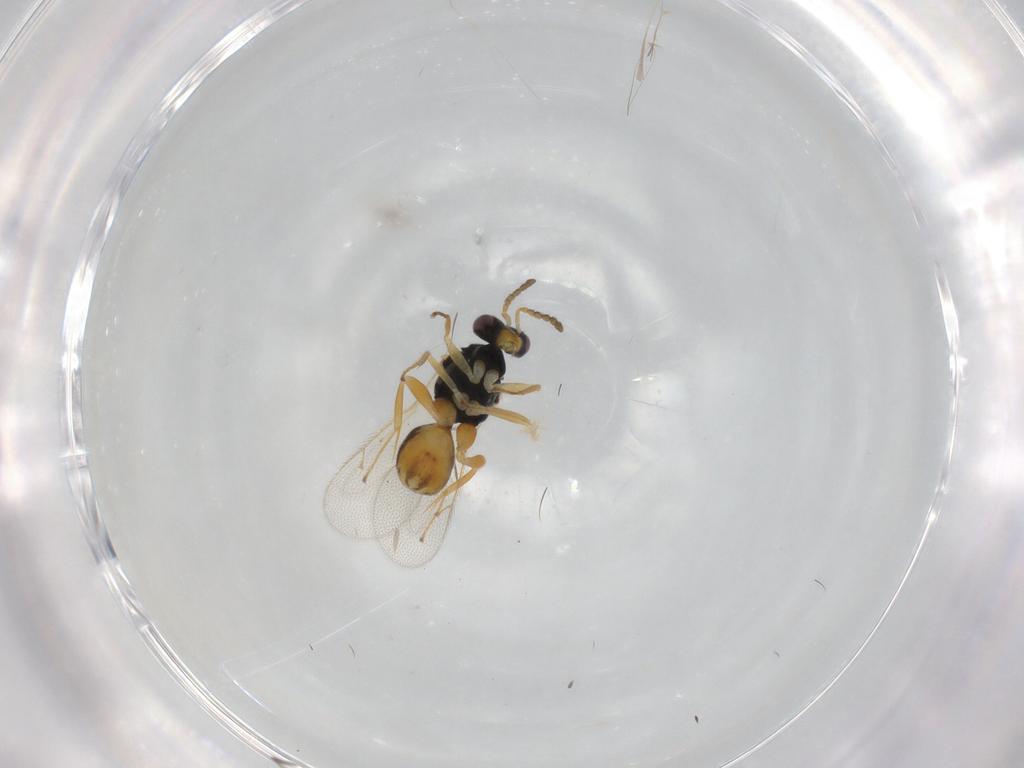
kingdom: Animalia
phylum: Arthropoda
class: Insecta
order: Hymenoptera
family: Eulophidae
